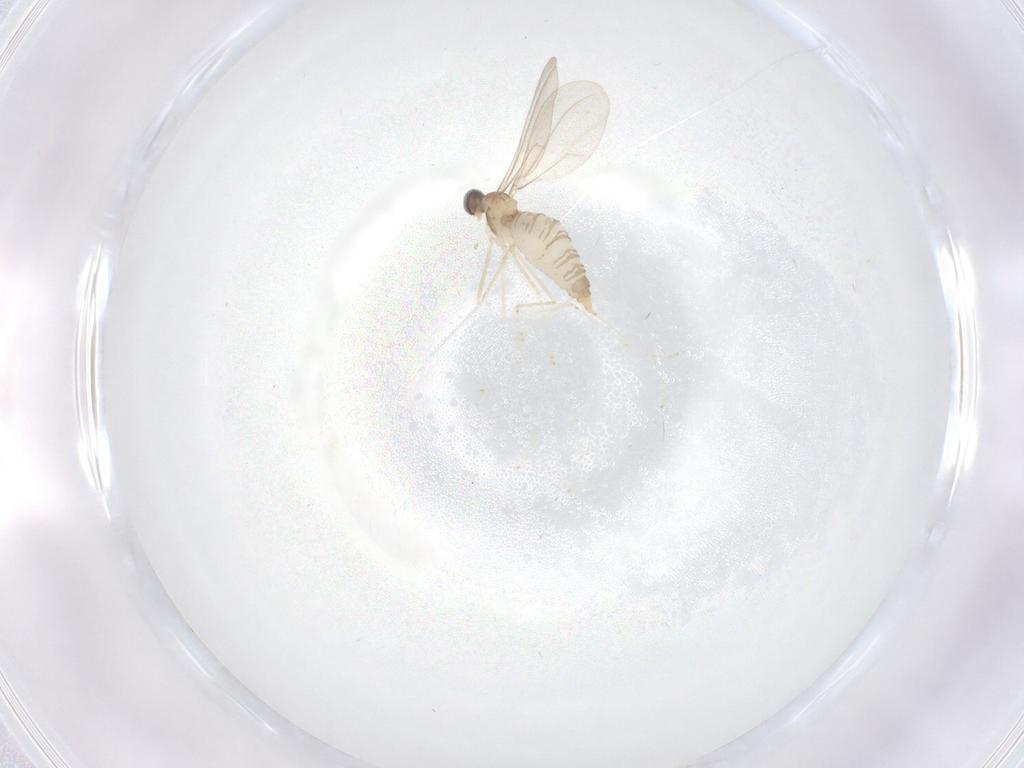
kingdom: Animalia
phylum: Arthropoda
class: Insecta
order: Diptera
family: Cecidomyiidae
